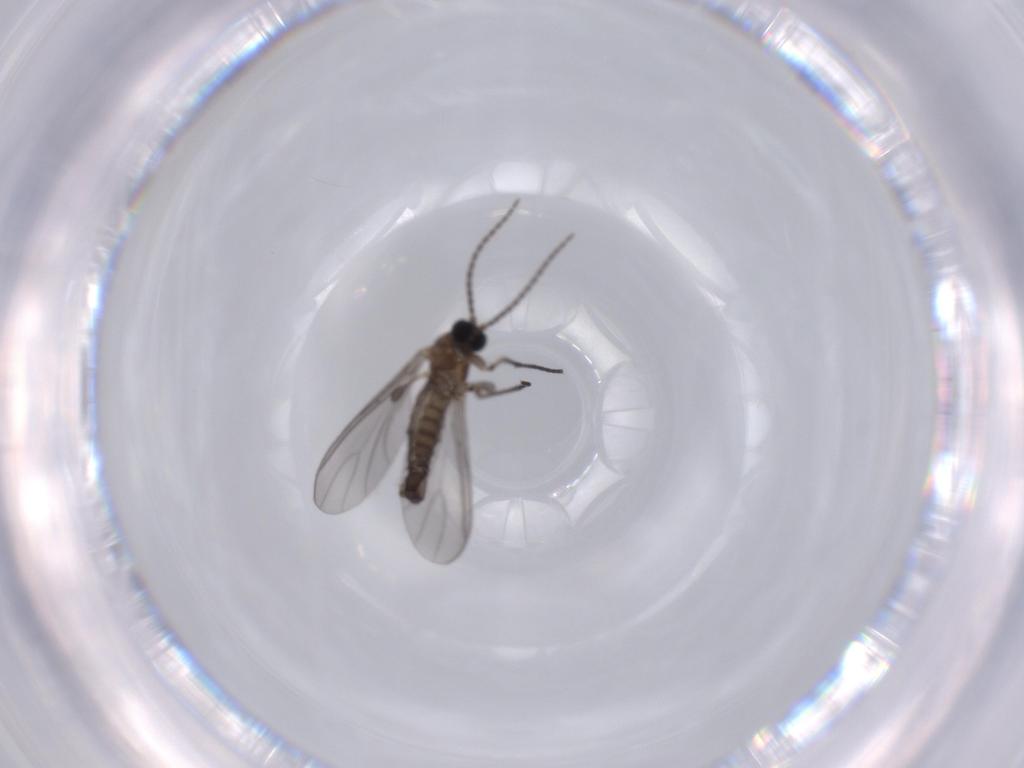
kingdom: Animalia
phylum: Arthropoda
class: Insecta
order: Diptera
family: Sciaridae
